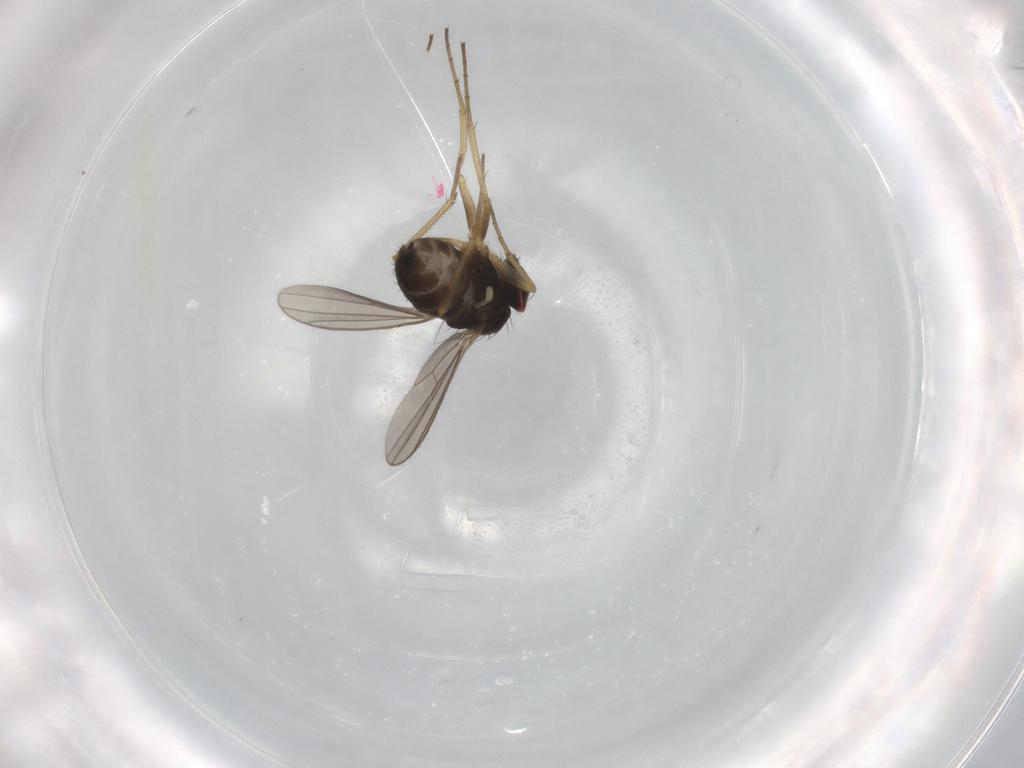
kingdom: Animalia
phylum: Arthropoda
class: Insecta
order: Diptera
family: Dolichopodidae
